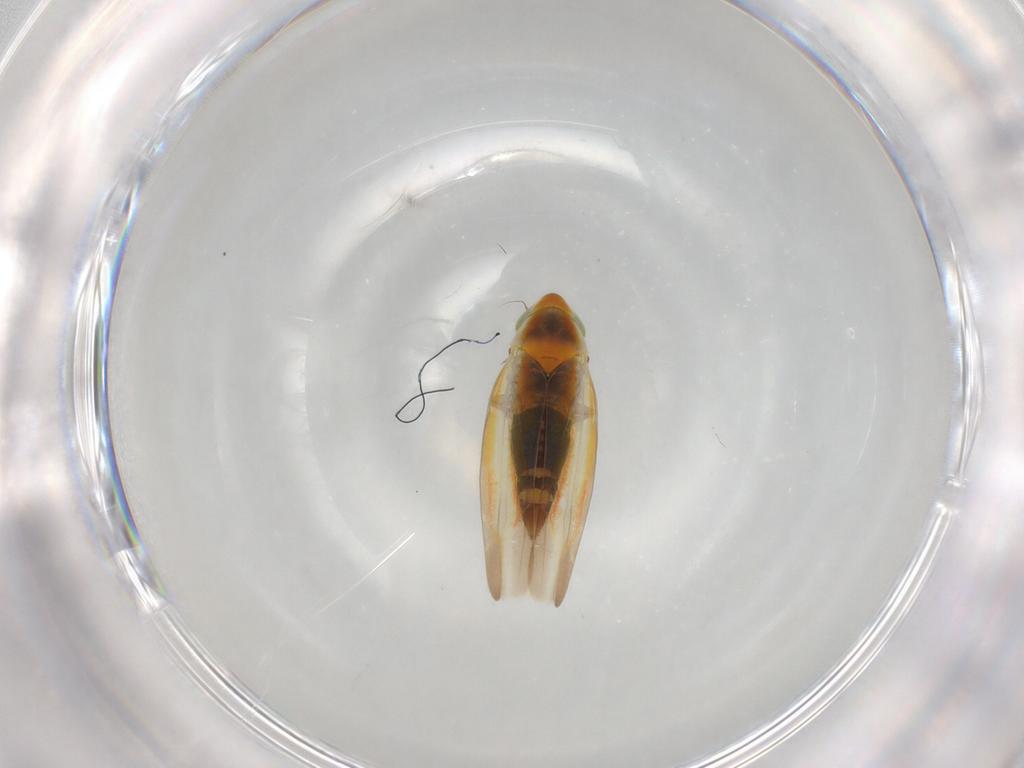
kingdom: Animalia
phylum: Arthropoda
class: Insecta
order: Hemiptera
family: Cicadellidae
